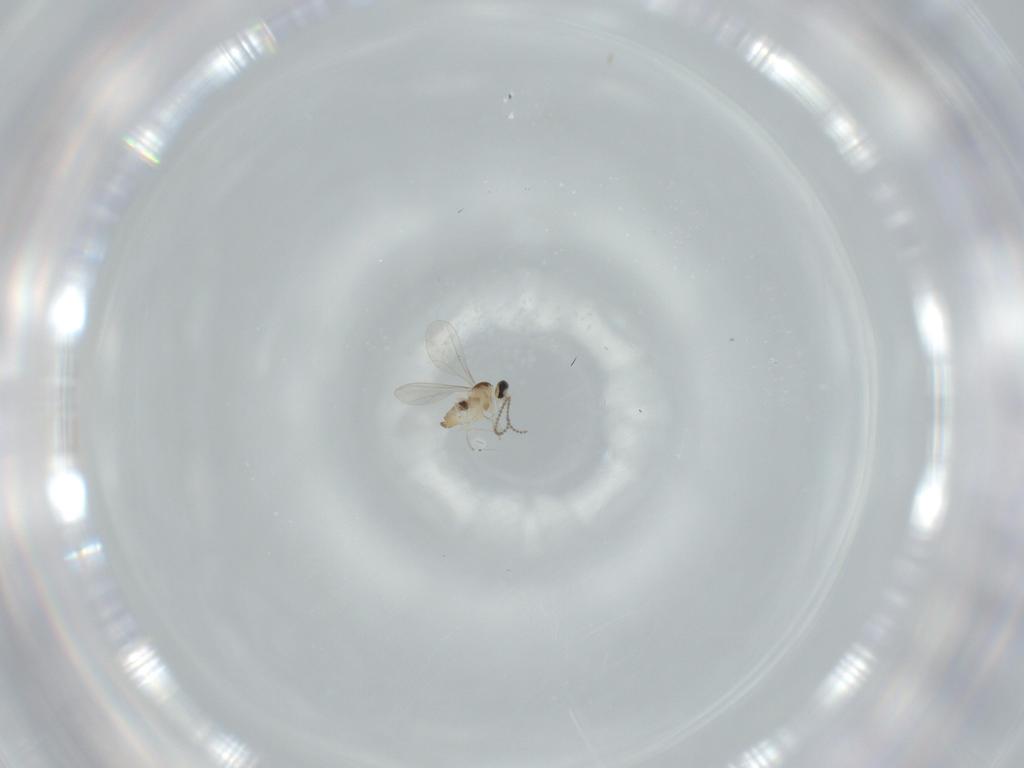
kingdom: Animalia
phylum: Arthropoda
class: Insecta
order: Diptera
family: Cecidomyiidae
